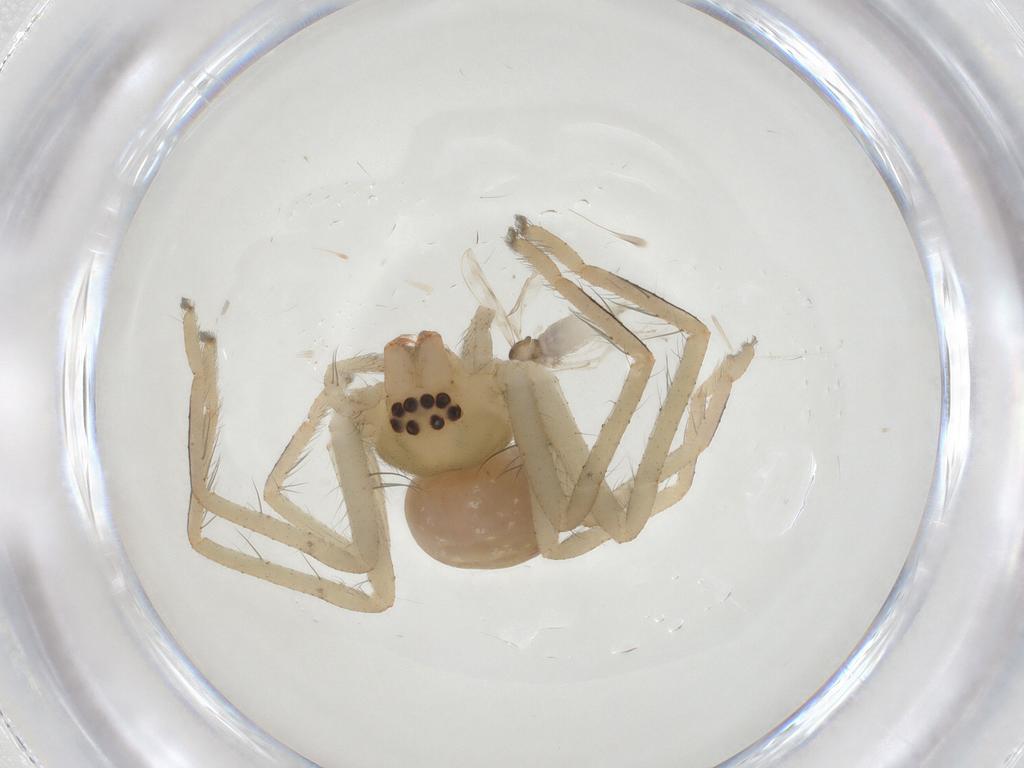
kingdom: Animalia
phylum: Arthropoda
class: Arachnida
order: Araneae
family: Sparassidae
